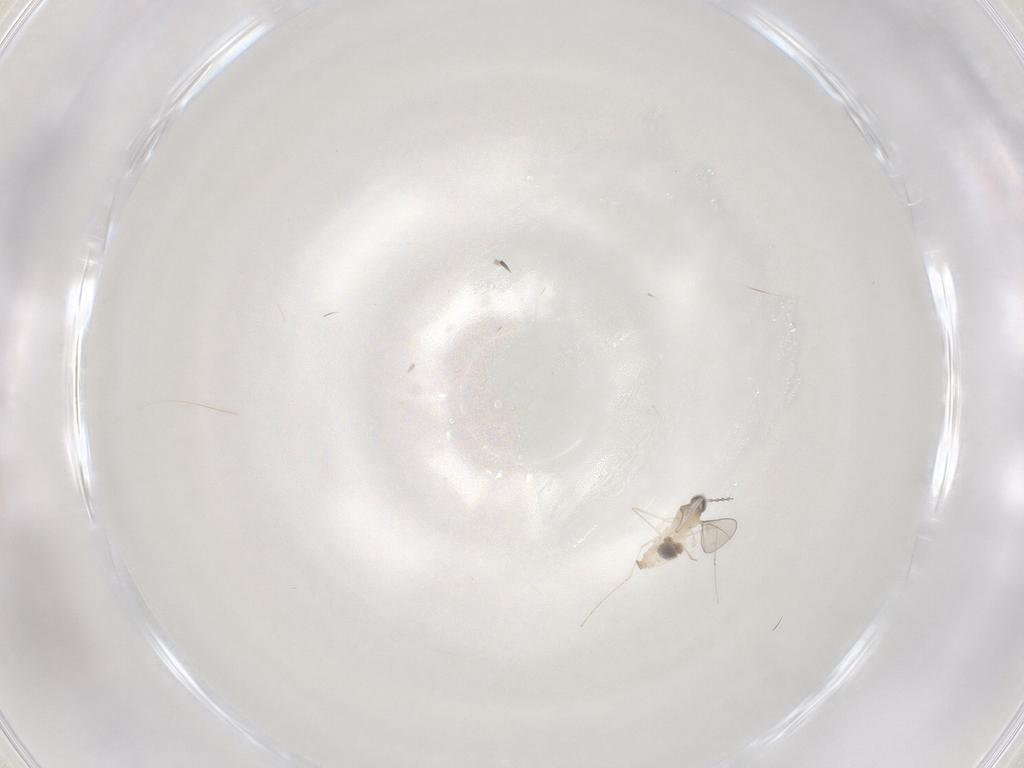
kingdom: Animalia
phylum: Arthropoda
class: Insecta
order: Diptera
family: Cecidomyiidae
